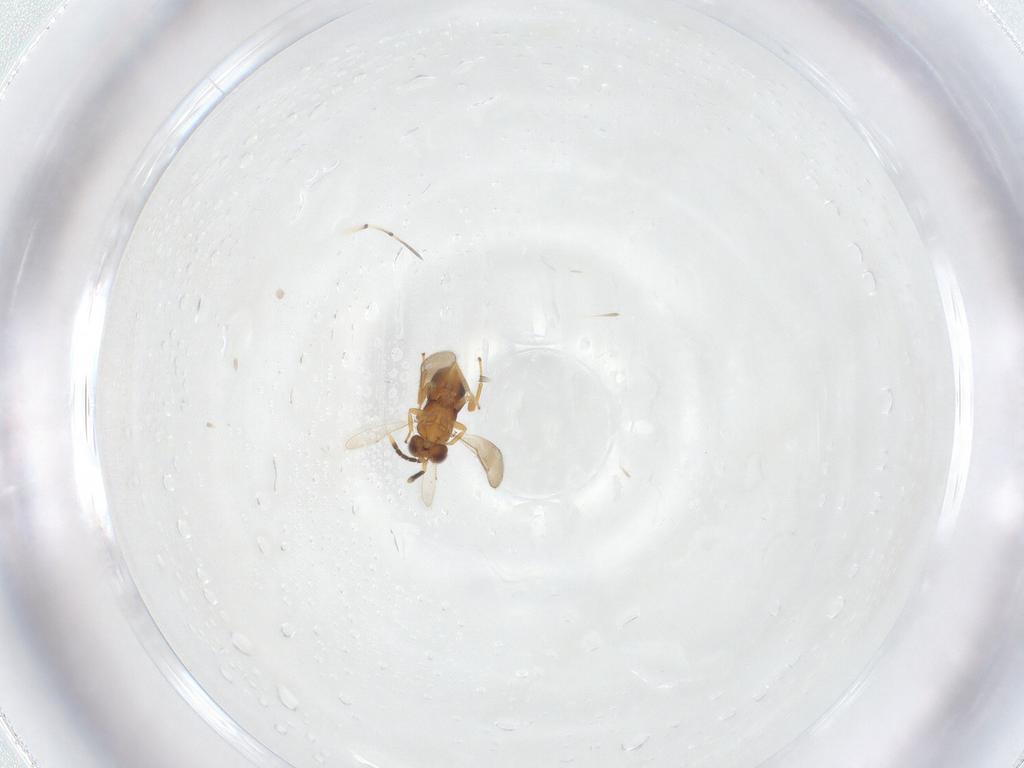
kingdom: Animalia
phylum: Arthropoda
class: Insecta
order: Hymenoptera
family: Aphelinidae
